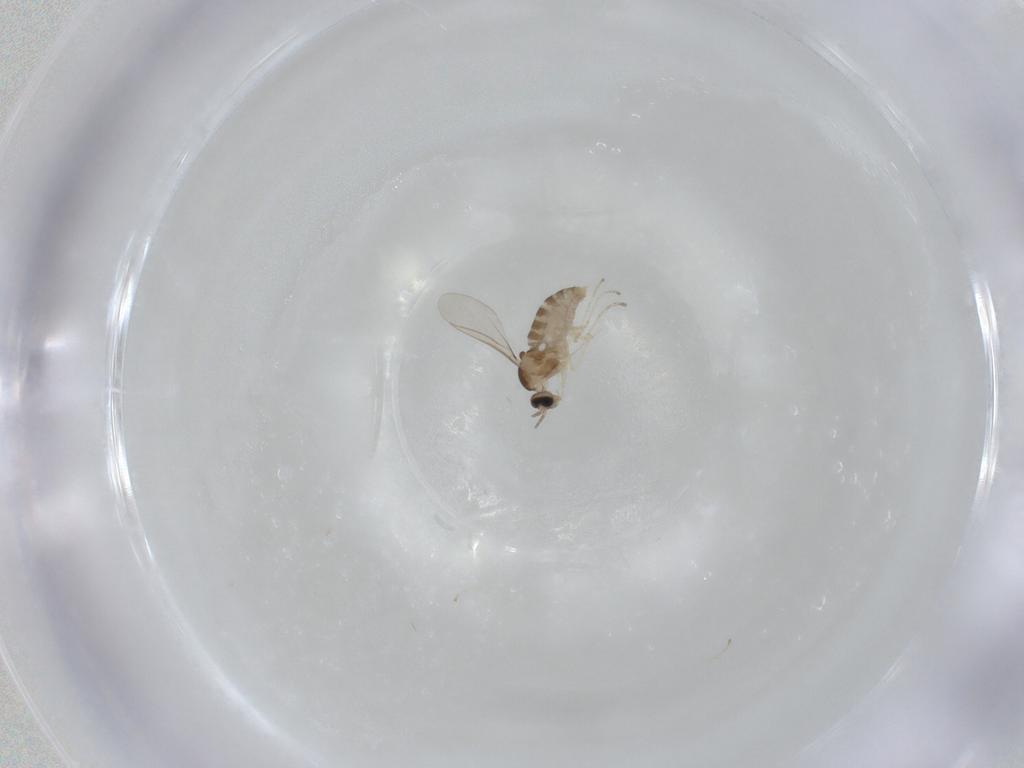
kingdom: Animalia
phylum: Arthropoda
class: Insecta
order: Diptera
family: Cecidomyiidae
